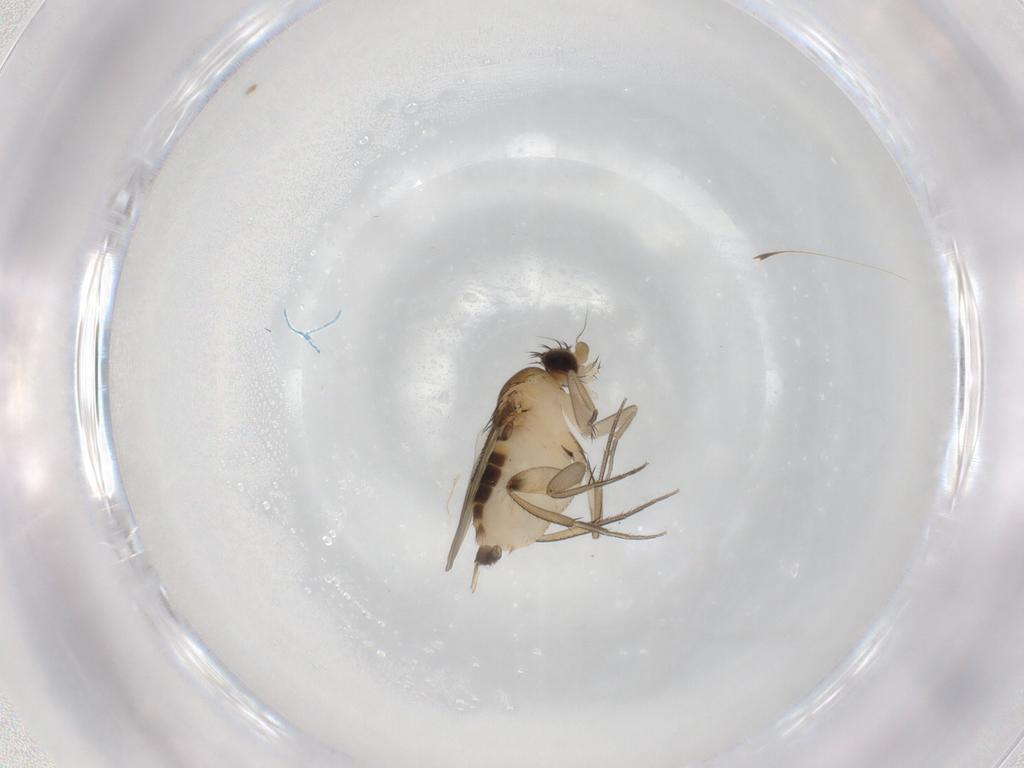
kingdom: Animalia
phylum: Arthropoda
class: Insecta
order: Diptera
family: Phoridae
